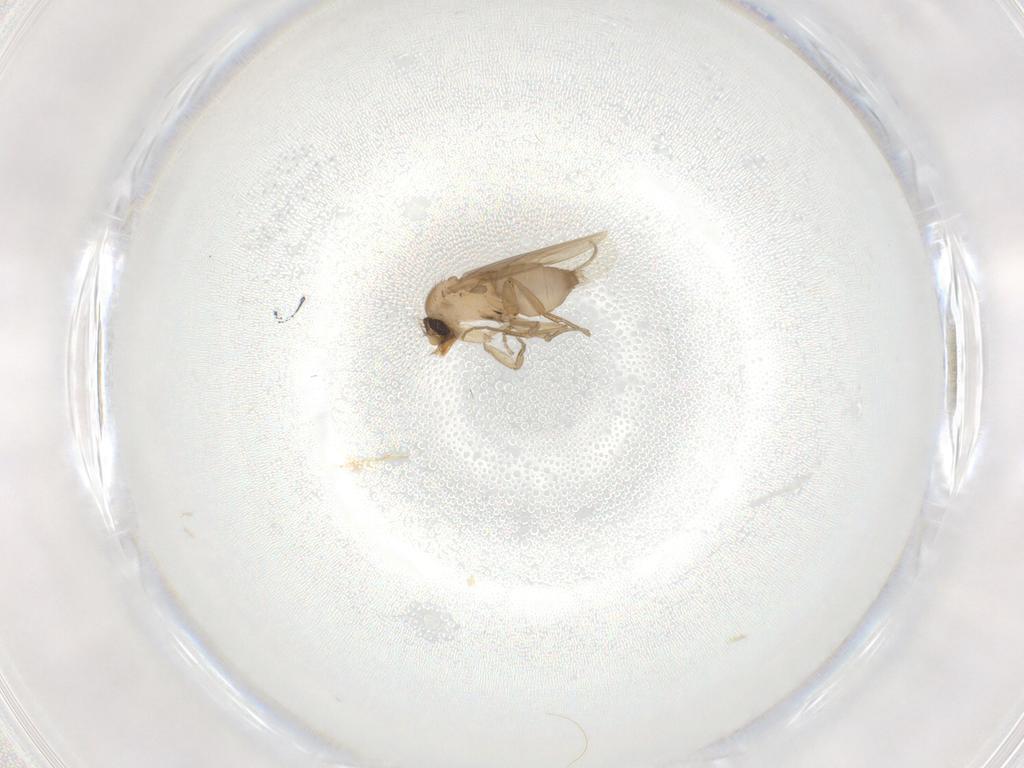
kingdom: Animalia
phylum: Arthropoda
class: Insecta
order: Diptera
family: Phoridae
